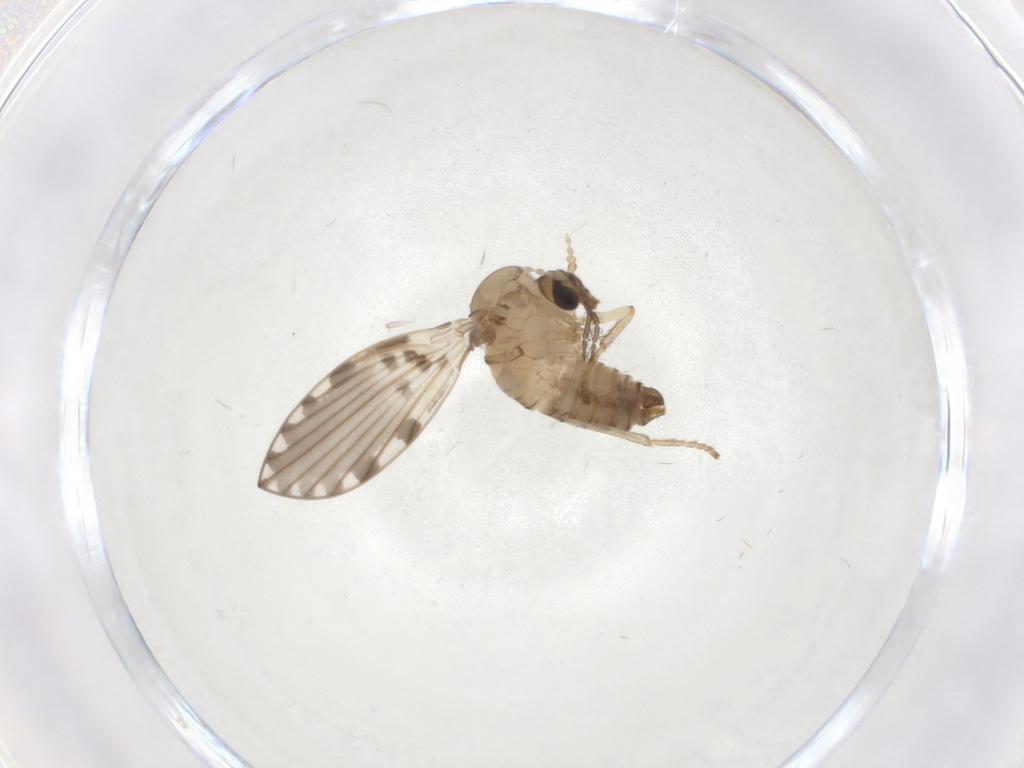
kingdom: Animalia
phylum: Arthropoda
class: Insecta
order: Diptera
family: Psychodidae
